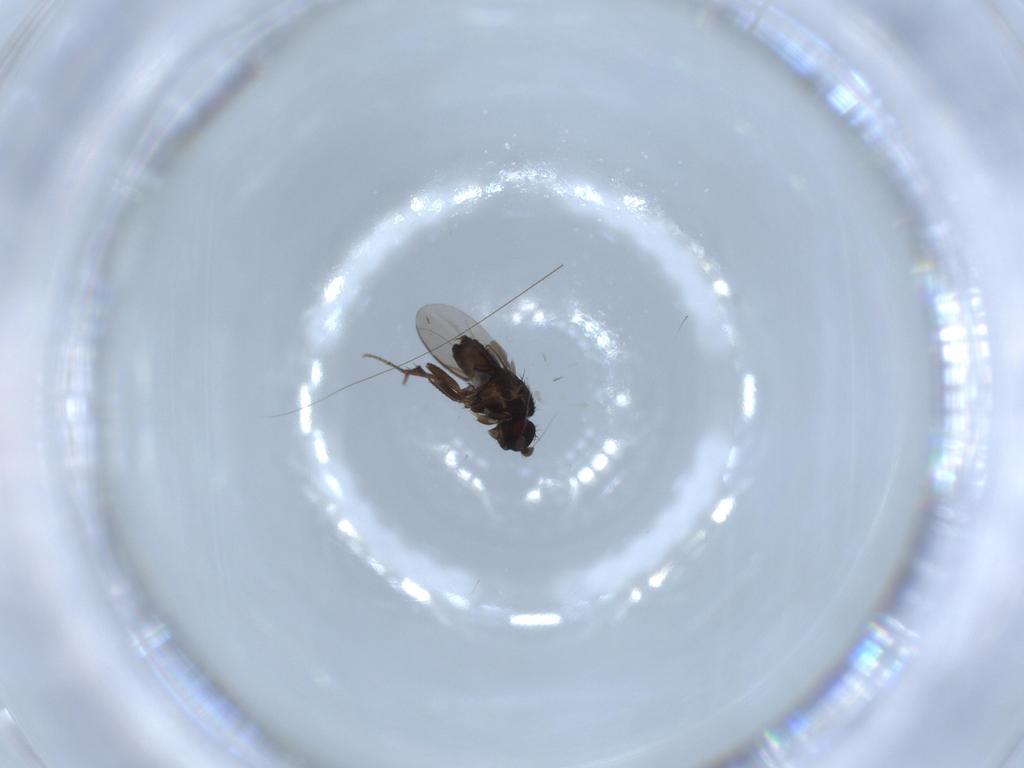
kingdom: Animalia
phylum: Arthropoda
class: Insecta
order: Diptera
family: Sphaeroceridae
